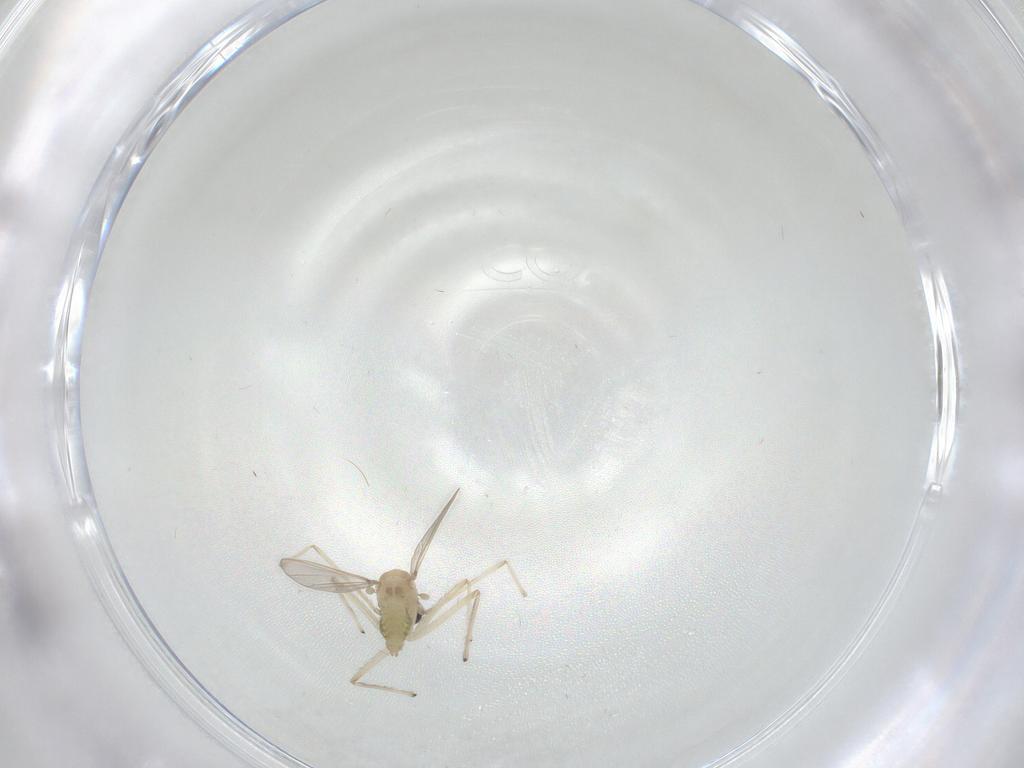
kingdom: Animalia
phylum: Arthropoda
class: Insecta
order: Diptera
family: Chironomidae
